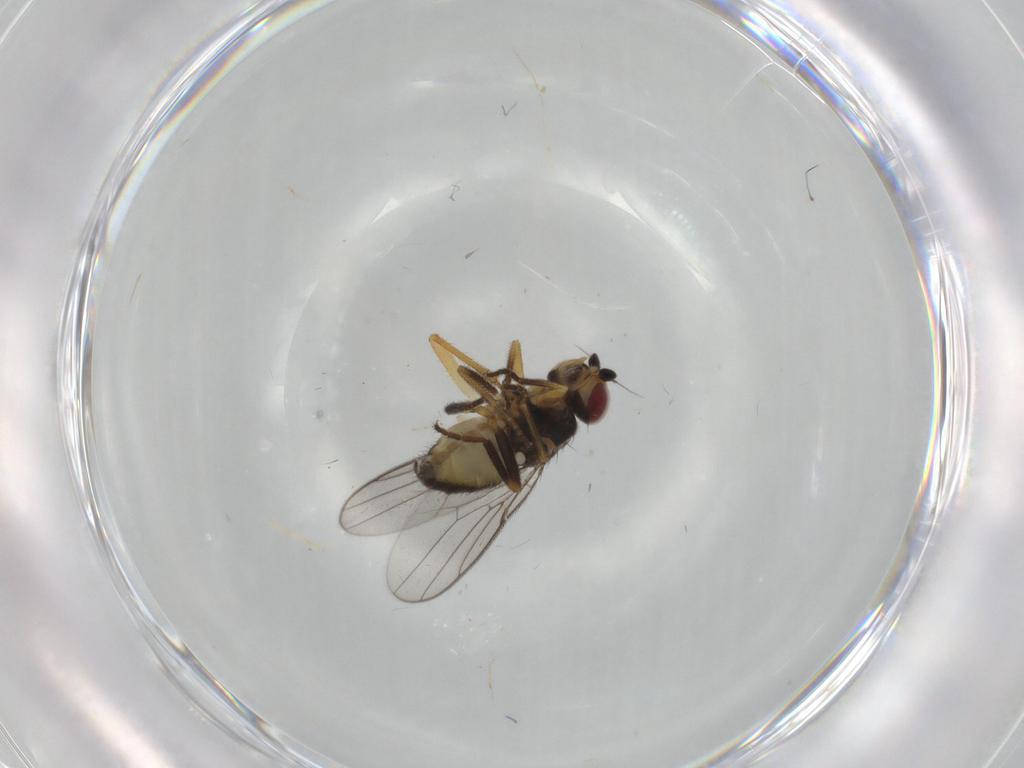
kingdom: Animalia
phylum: Arthropoda
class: Insecta
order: Diptera
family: Chloropidae
